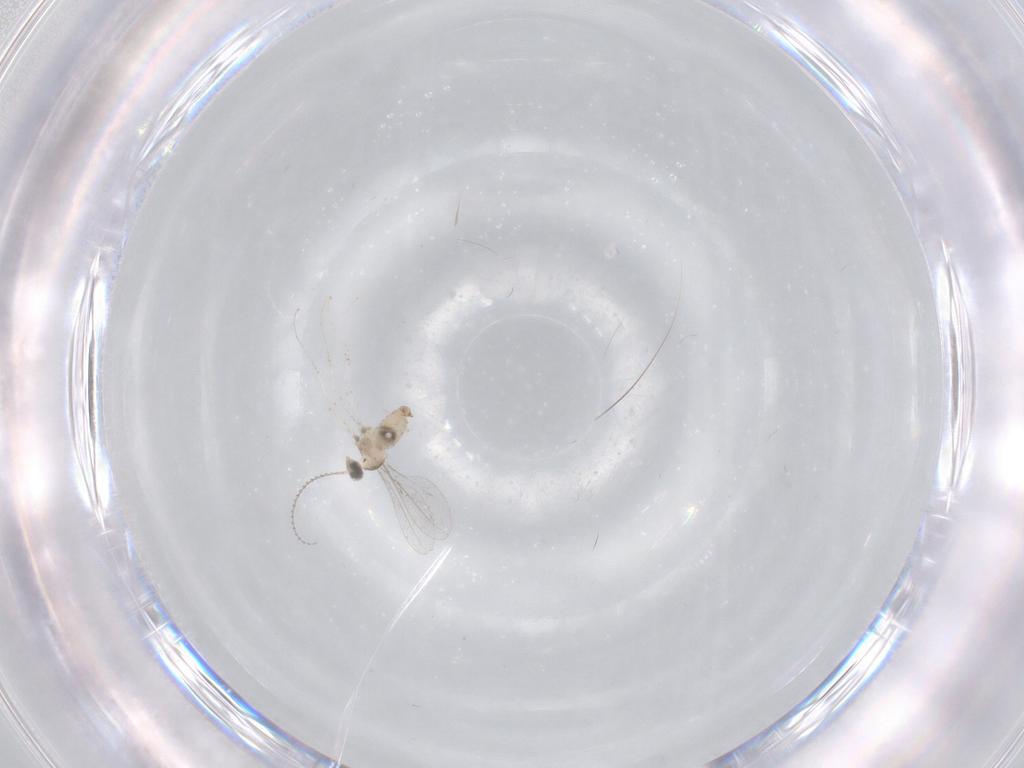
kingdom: Animalia
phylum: Arthropoda
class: Insecta
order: Diptera
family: Cecidomyiidae
